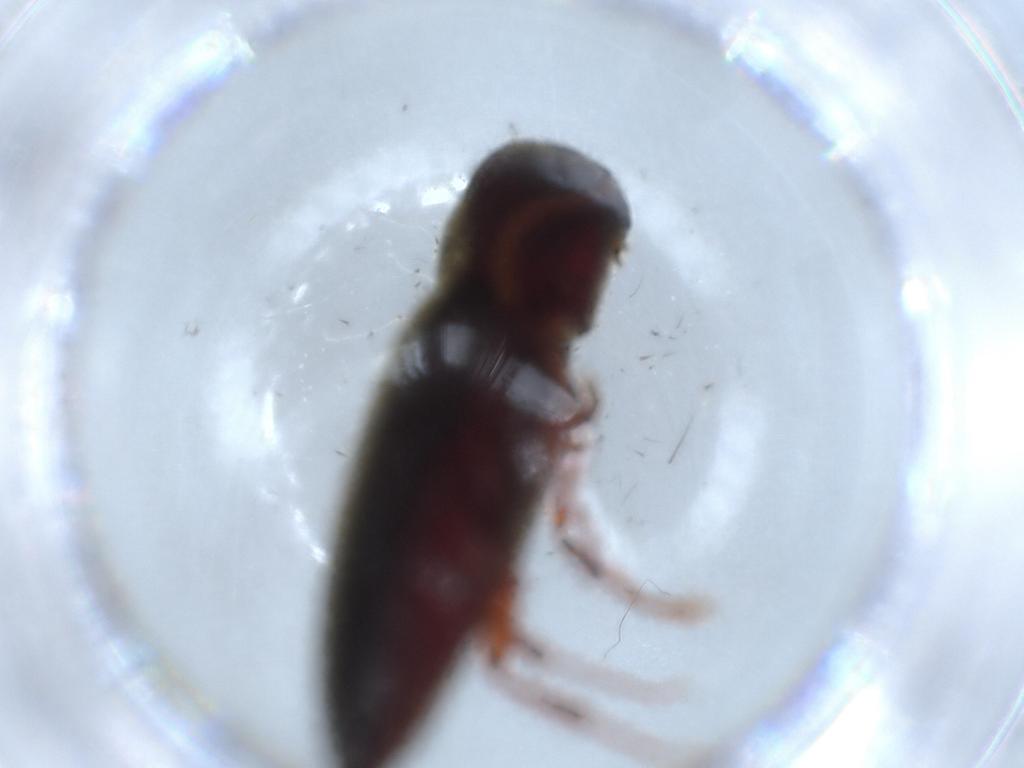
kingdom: Animalia
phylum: Arthropoda
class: Insecta
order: Coleoptera
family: Eucnemidae
